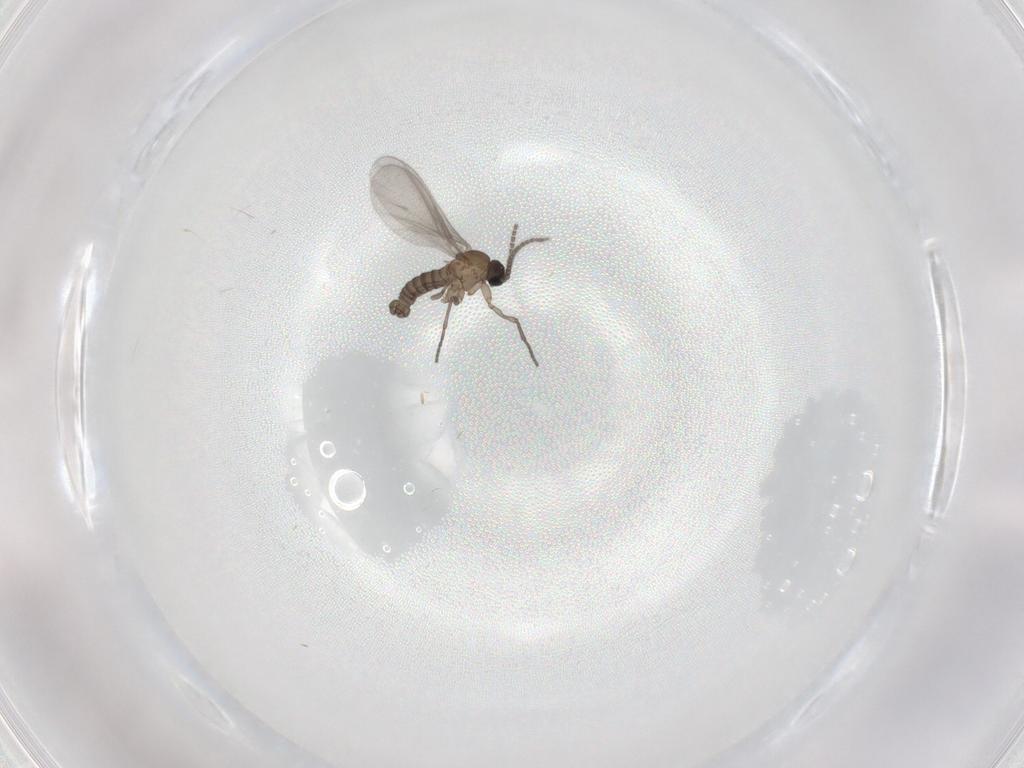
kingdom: Animalia
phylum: Arthropoda
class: Insecta
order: Diptera
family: Sciaridae
